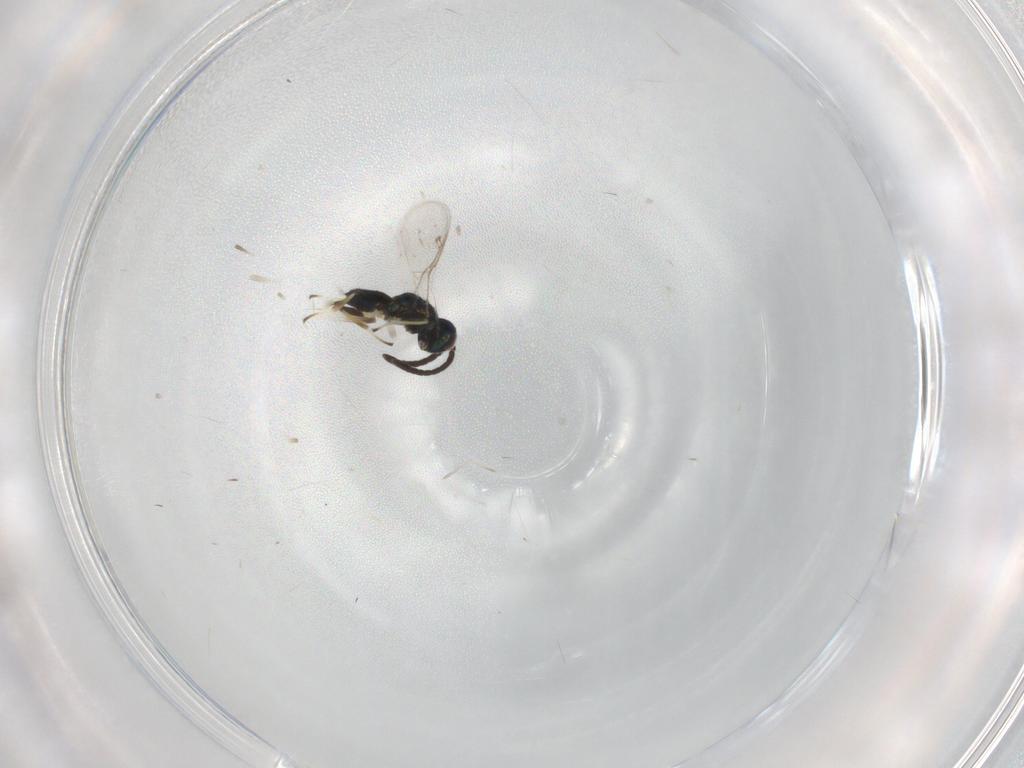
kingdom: Animalia
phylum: Arthropoda
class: Insecta
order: Hymenoptera
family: Eupelmidae
